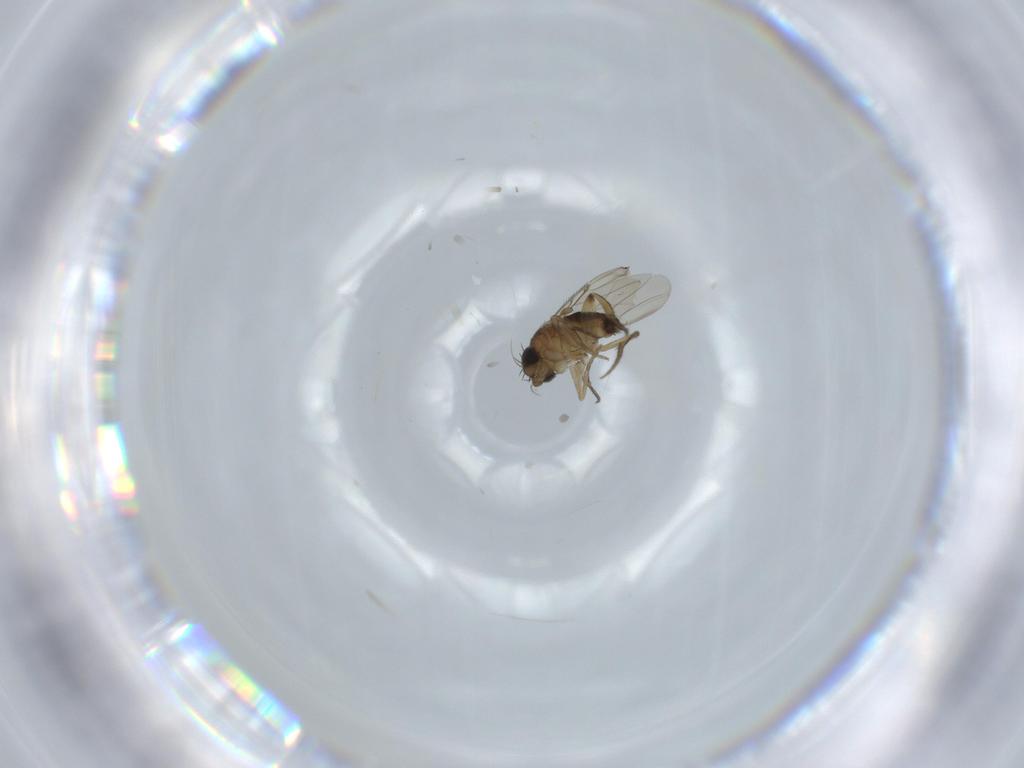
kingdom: Animalia
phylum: Arthropoda
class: Insecta
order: Diptera
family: Phoridae
